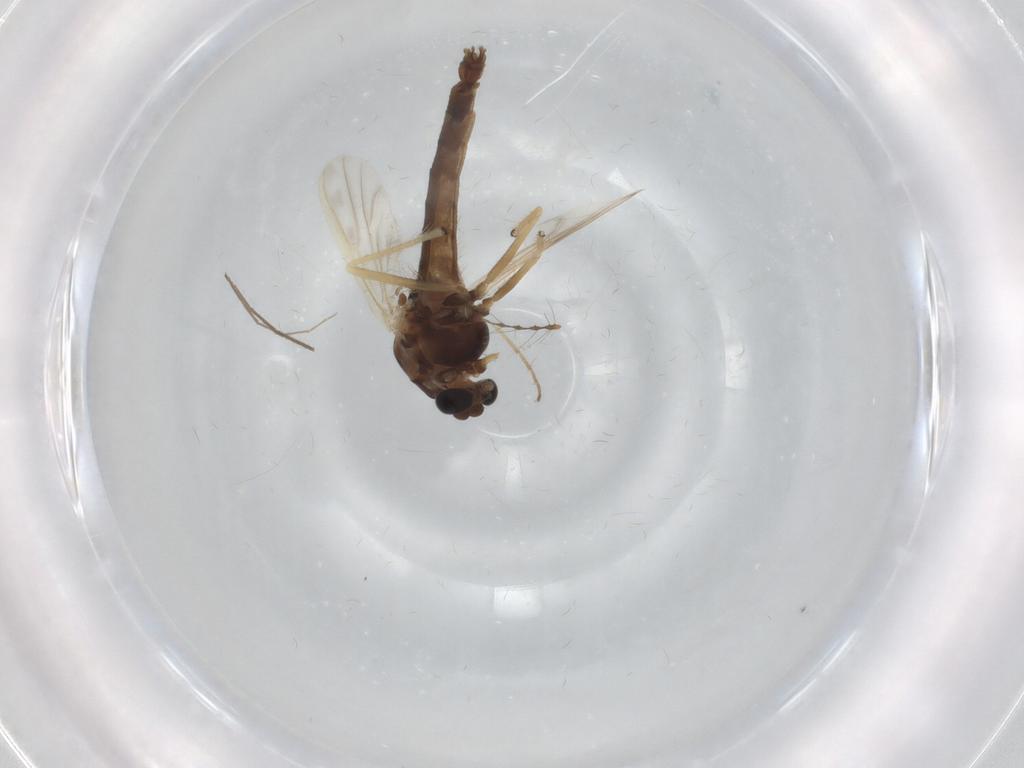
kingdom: Animalia
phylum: Arthropoda
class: Insecta
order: Diptera
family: Chironomidae
